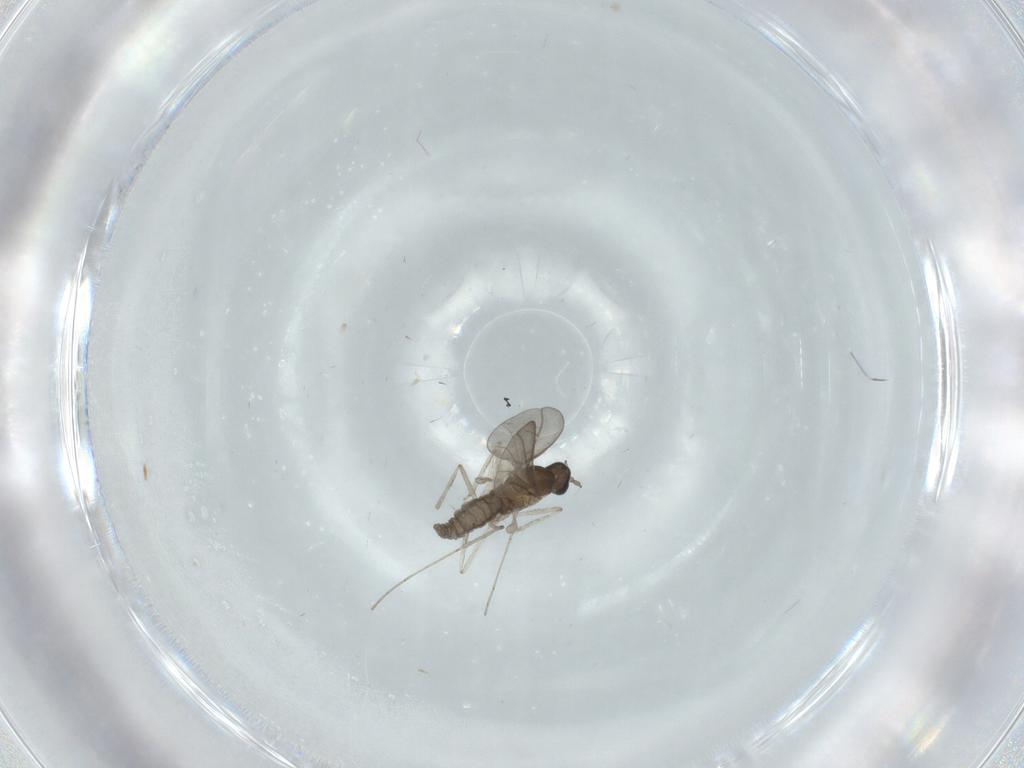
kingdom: Animalia
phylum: Arthropoda
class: Insecta
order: Diptera
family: Cecidomyiidae
